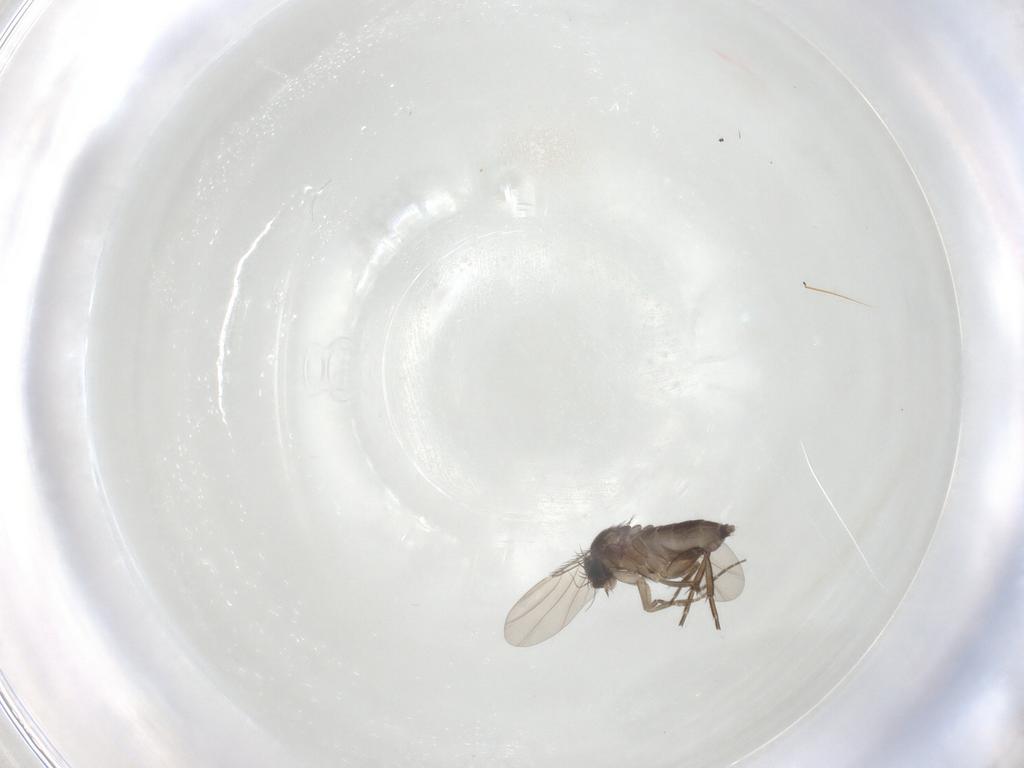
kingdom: Animalia
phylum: Arthropoda
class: Insecta
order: Diptera
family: Phoridae
